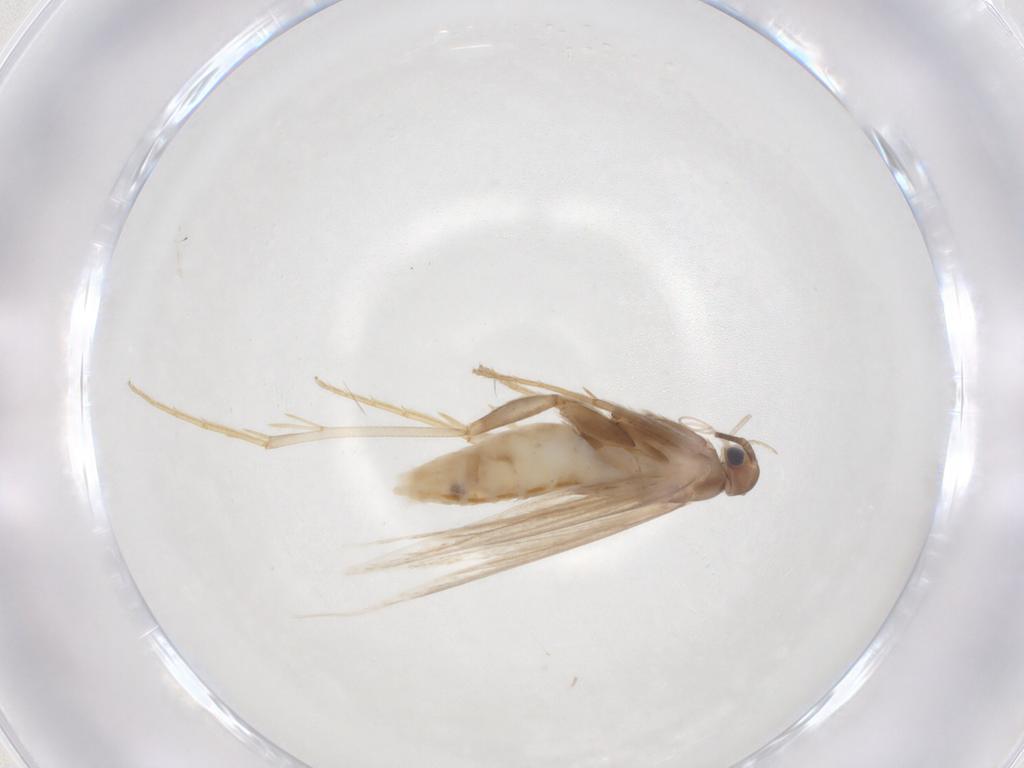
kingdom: Animalia
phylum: Arthropoda
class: Insecta
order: Lepidoptera
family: Coleophoridae
